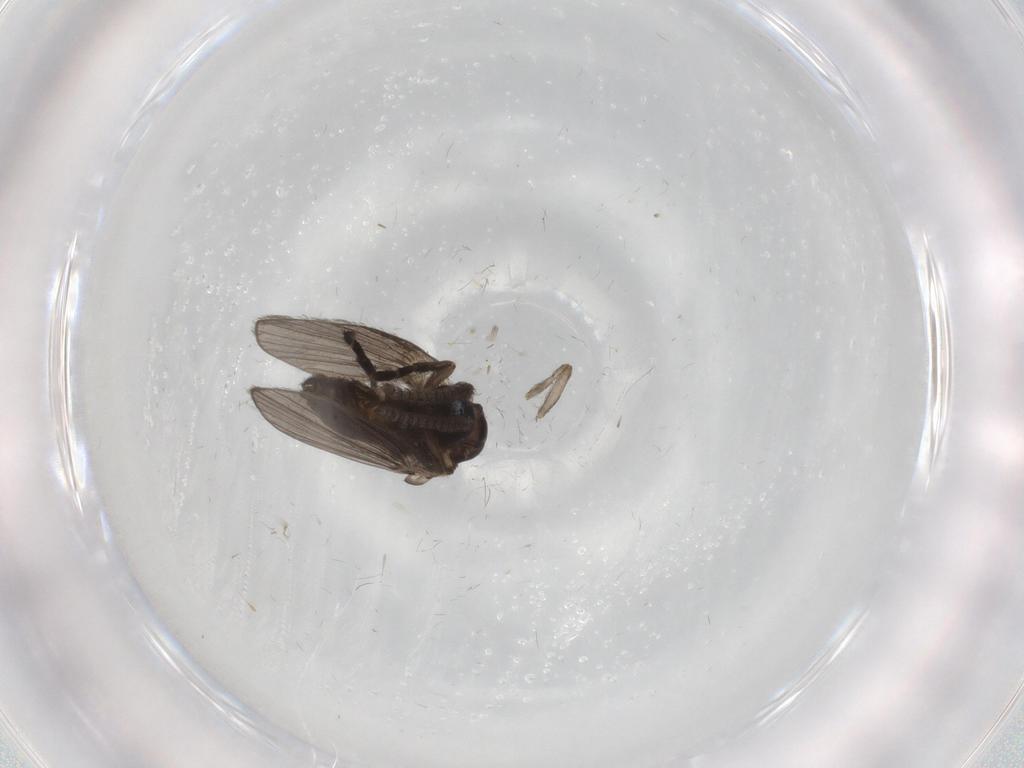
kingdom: Animalia
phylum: Arthropoda
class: Insecta
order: Diptera
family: Psychodidae
